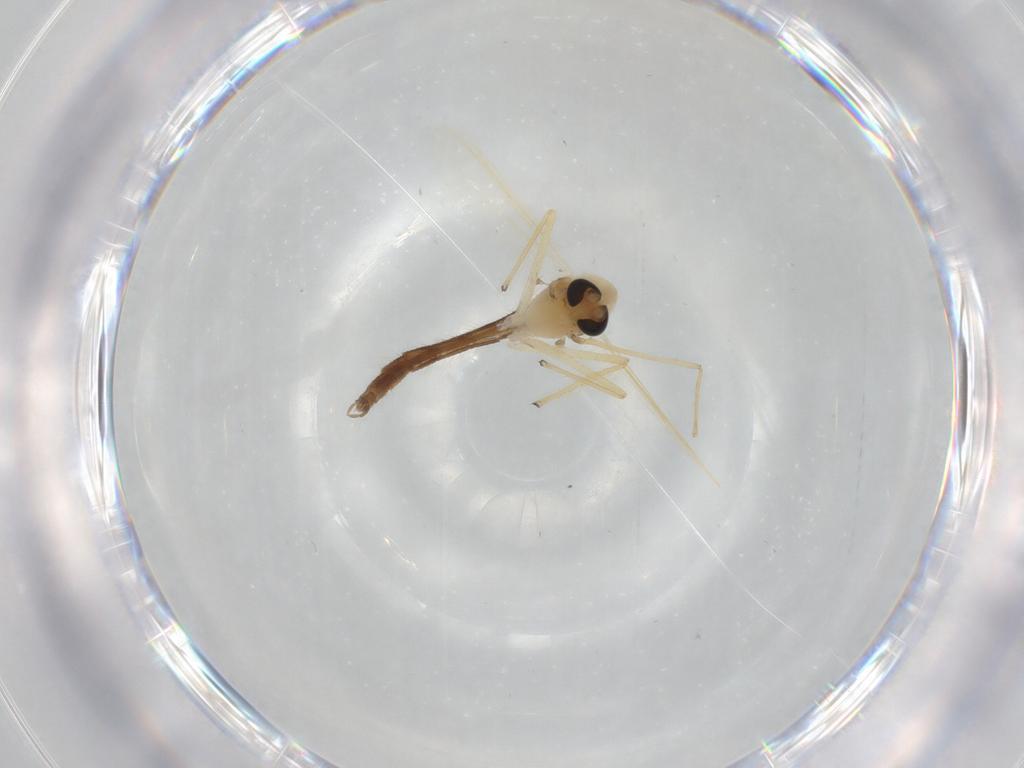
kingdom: Animalia
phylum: Arthropoda
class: Insecta
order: Diptera
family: Chironomidae
